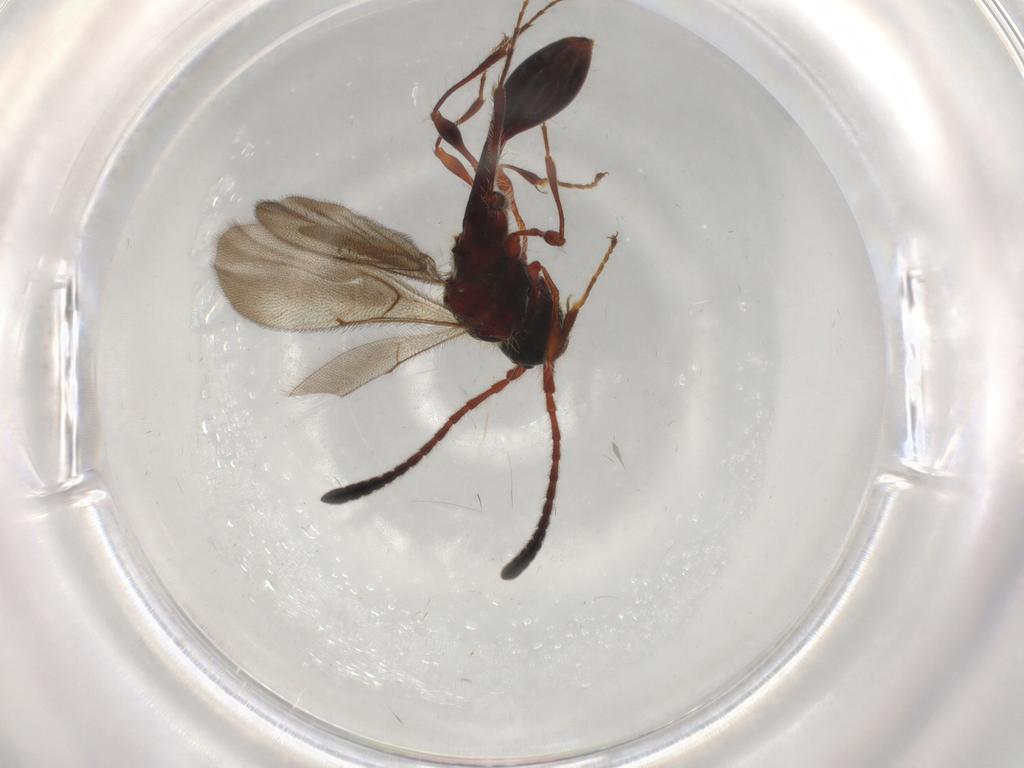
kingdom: Animalia
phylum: Arthropoda
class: Insecta
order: Hymenoptera
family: Diapriidae
